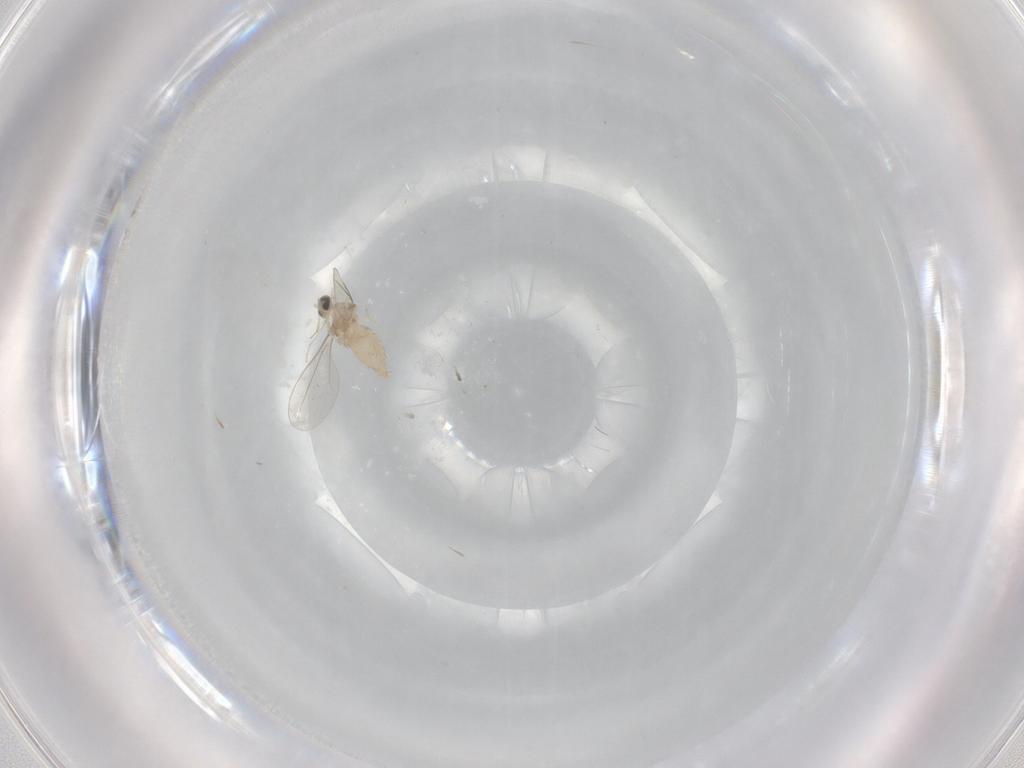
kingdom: Animalia
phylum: Arthropoda
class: Insecta
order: Diptera
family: Cecidomyiidae
